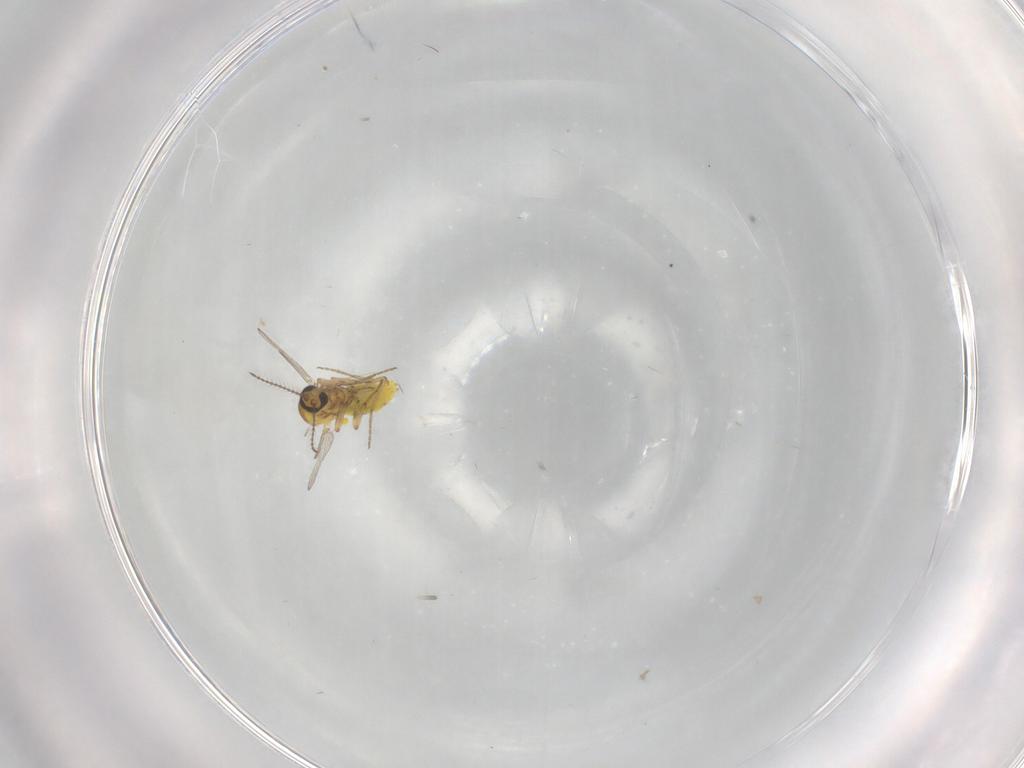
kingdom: Animalia
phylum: Arthropoda
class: Insecta
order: Diptera
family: Ceratopogonidae
